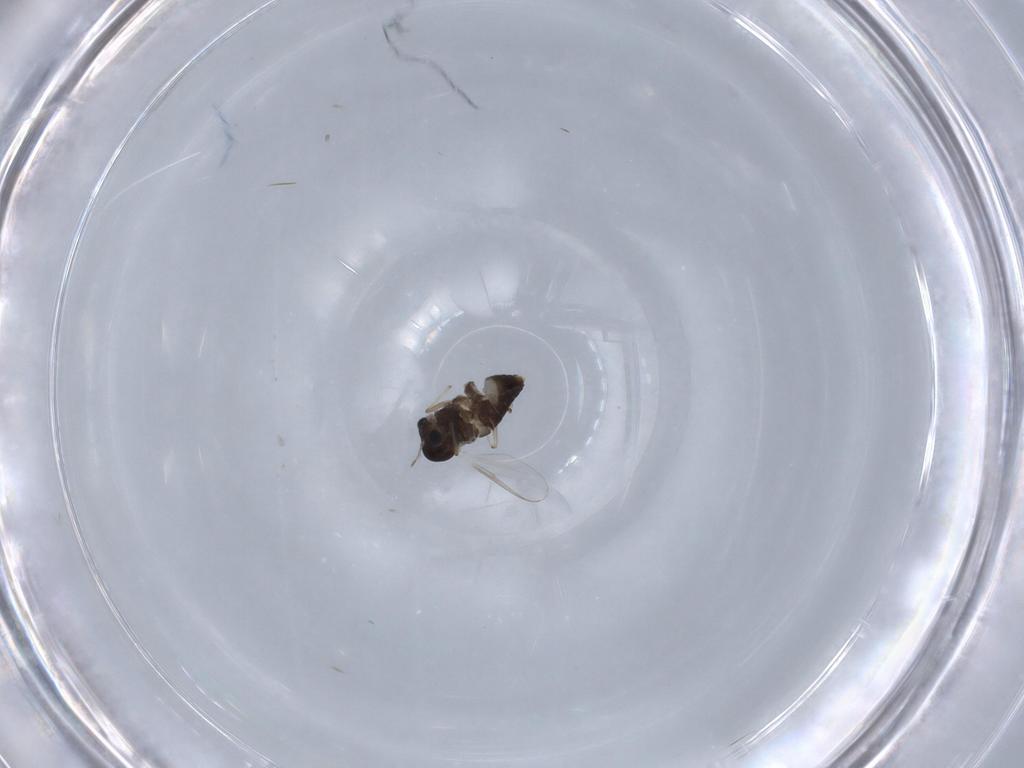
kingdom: Animalia
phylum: Arthropoda
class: Insecta
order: Diptera
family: Chironomidae
